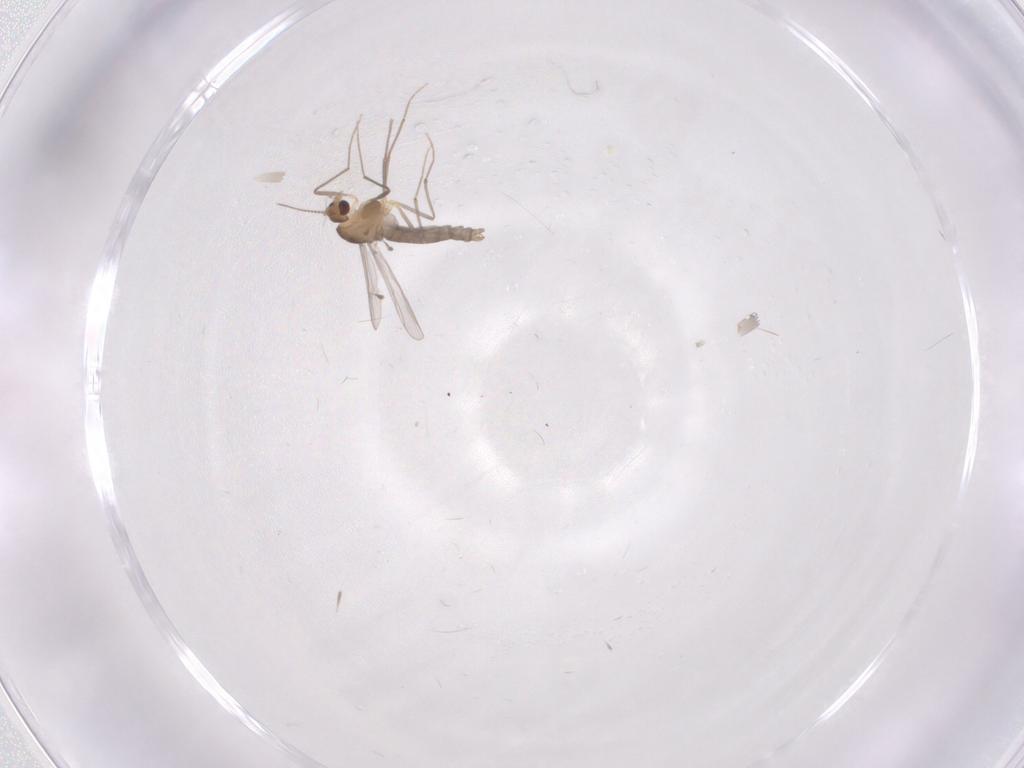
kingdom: Animalia
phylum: Arthropoda
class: Insecta
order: Diptera
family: Chironomidae
